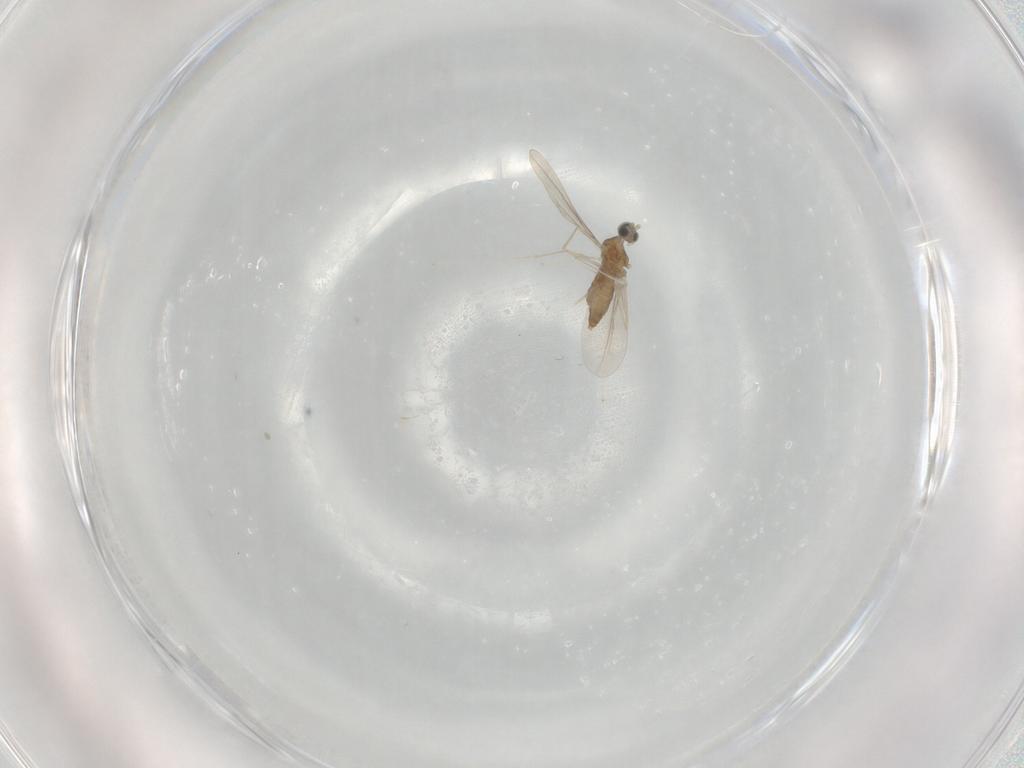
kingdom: Animalia
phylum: Arthropoda
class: Insecta
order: Diptera
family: Cecidomyiidae
